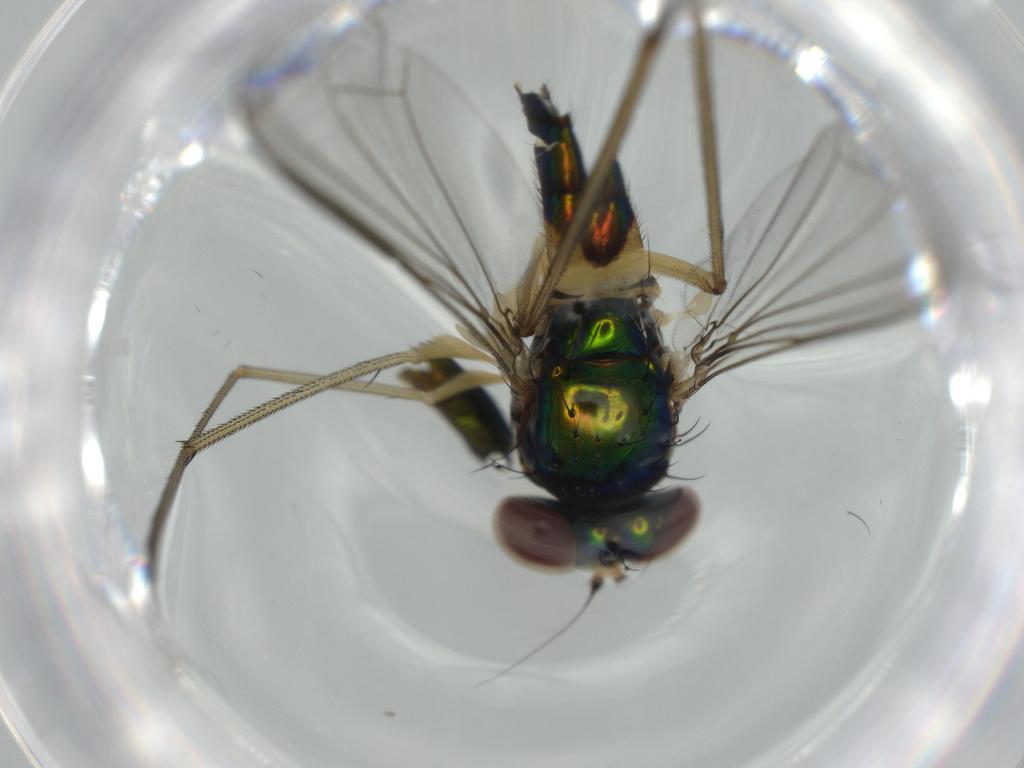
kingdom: Animalia
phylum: Arthropoda
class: Insecta
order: Diptera
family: Dolichopodidae
